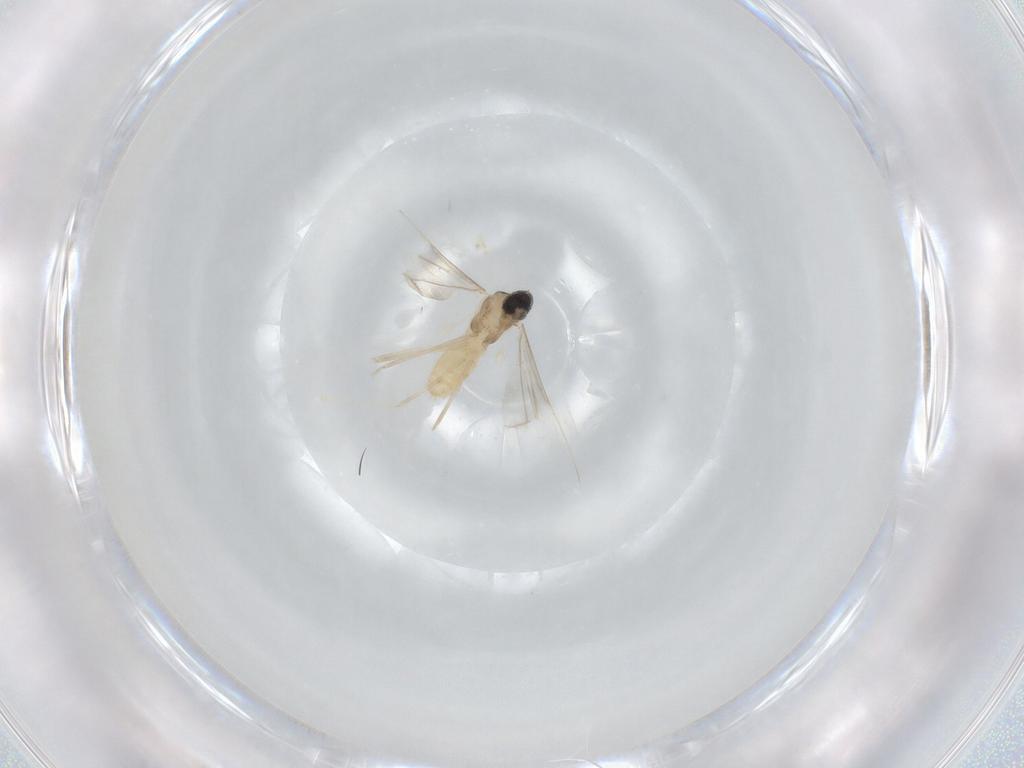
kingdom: Animalia
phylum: Arthropoda
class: Insecta
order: Diptera
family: Cecidomyiidae
